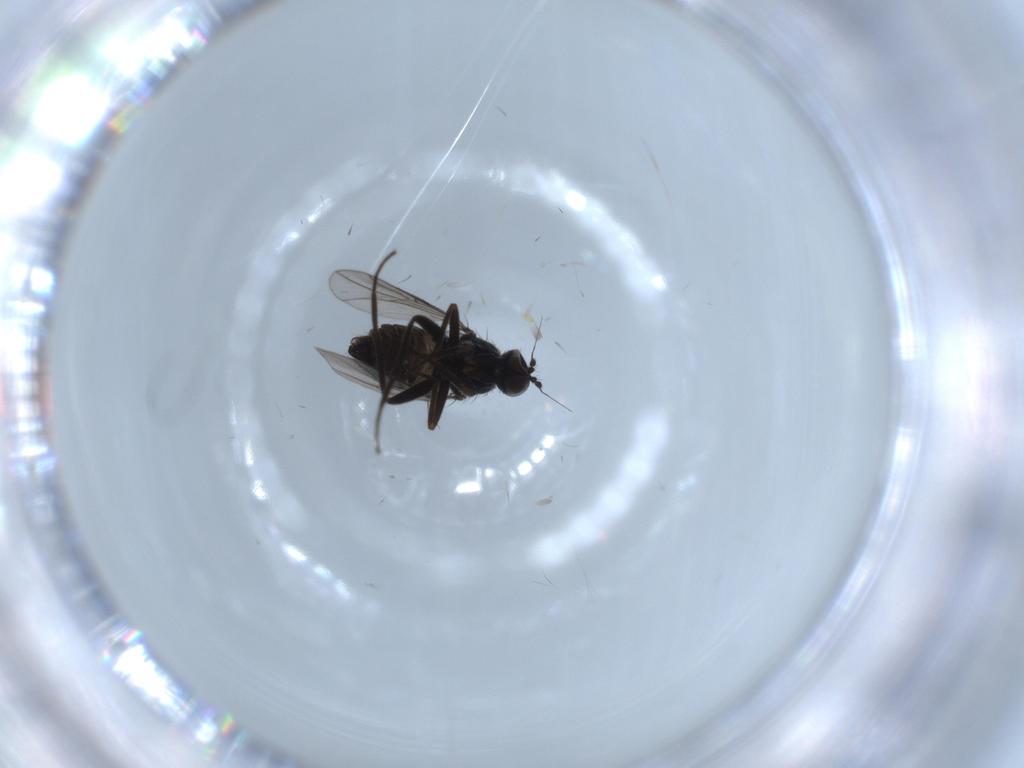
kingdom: Animalia
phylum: Arthropoda
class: Insecta
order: Diptera
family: Hybotidae
